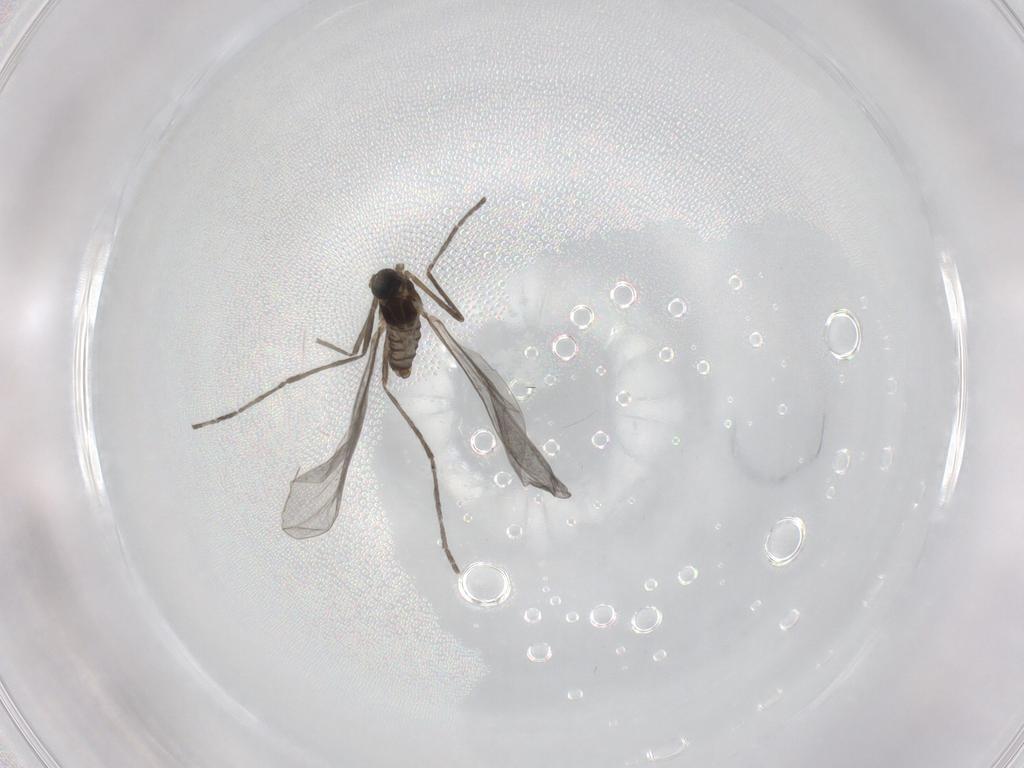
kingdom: Animalia
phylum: Arthropoda
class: Insecta
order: Diptera
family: Cecidomyiidae
